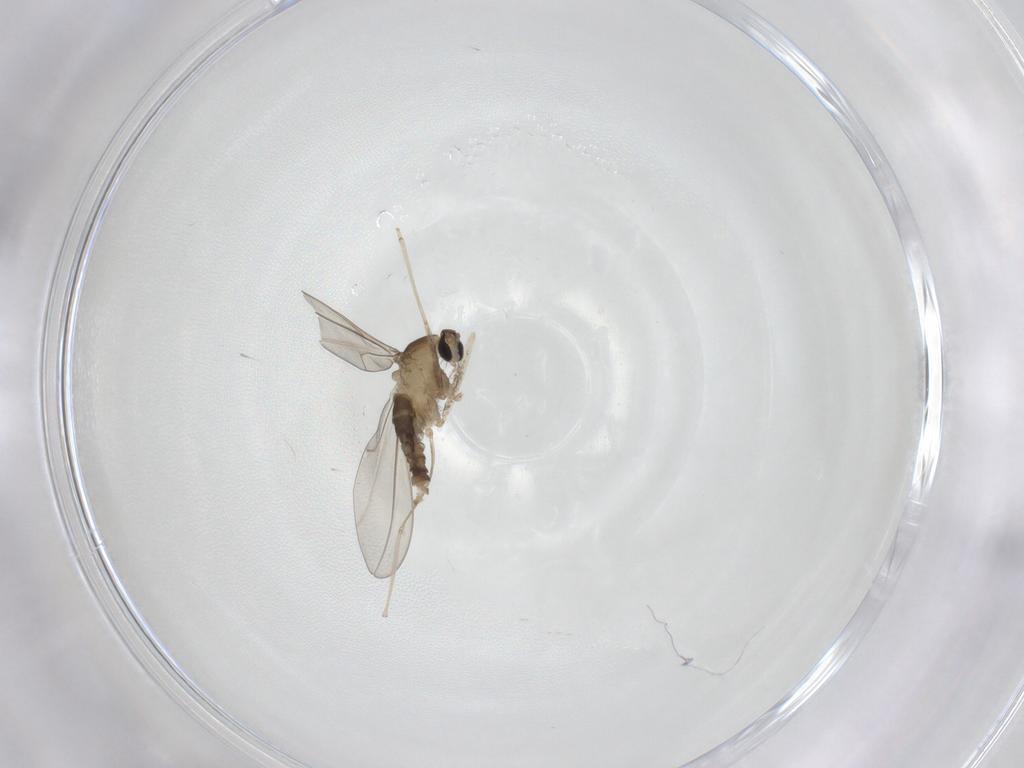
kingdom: Animalia
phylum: Arthropoda
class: Insecta
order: Diptera
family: Cecidomyiidae
